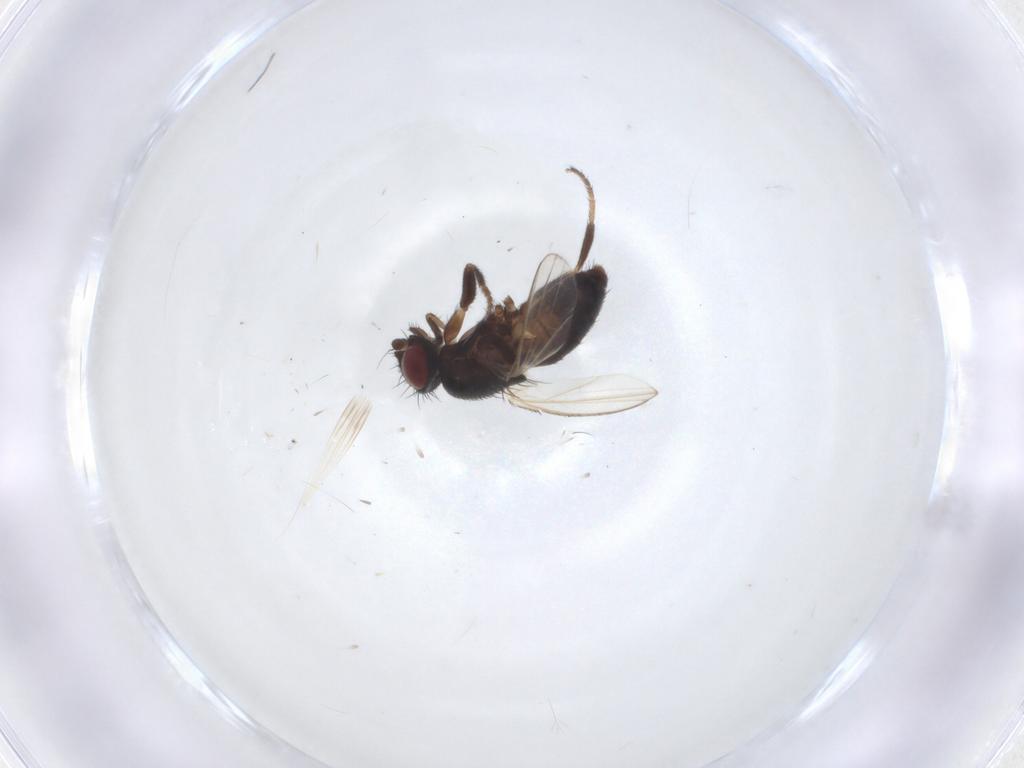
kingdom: Animalia
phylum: Arthropoda
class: Insecta
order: Diptera
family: Milichiidae
